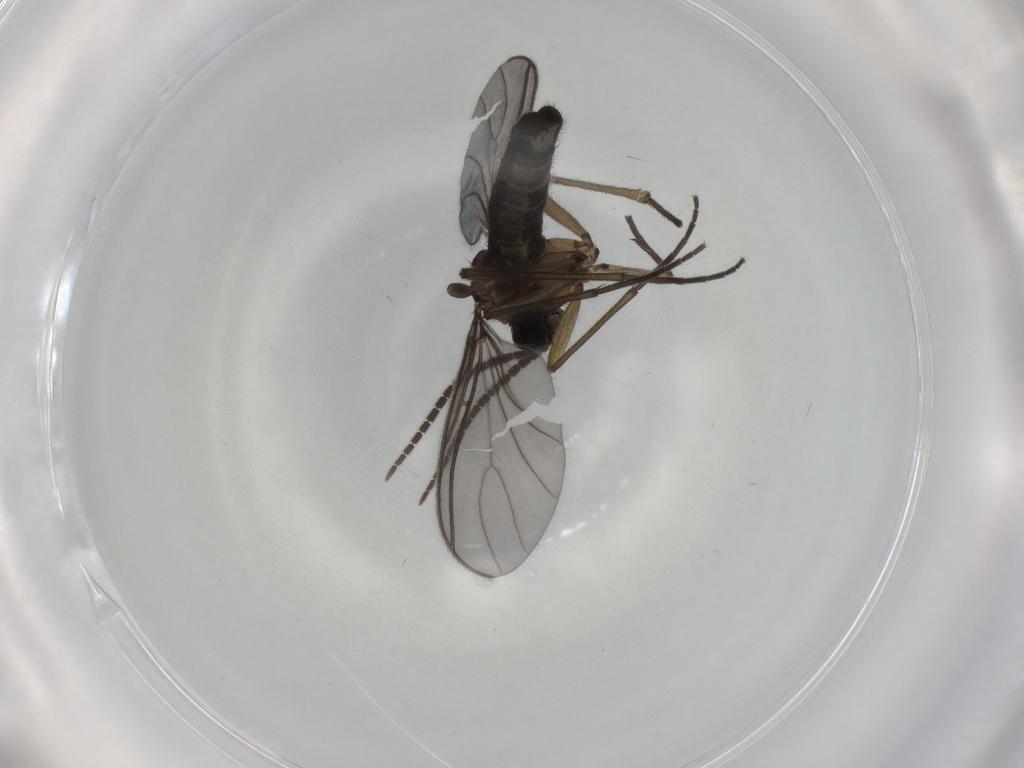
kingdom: Animalia
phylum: Arthropoda
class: Insecta
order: Diptera
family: Sciaridae
